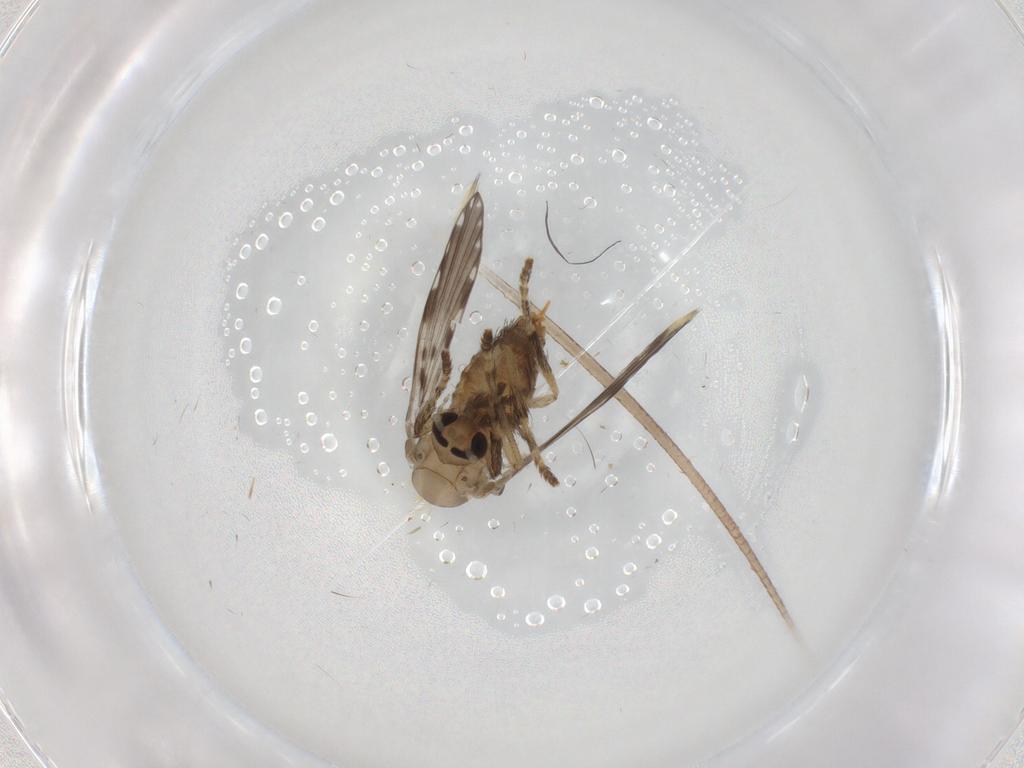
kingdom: Animalia
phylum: Arthropoda
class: Insecta
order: Diptera
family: Psychodidae
